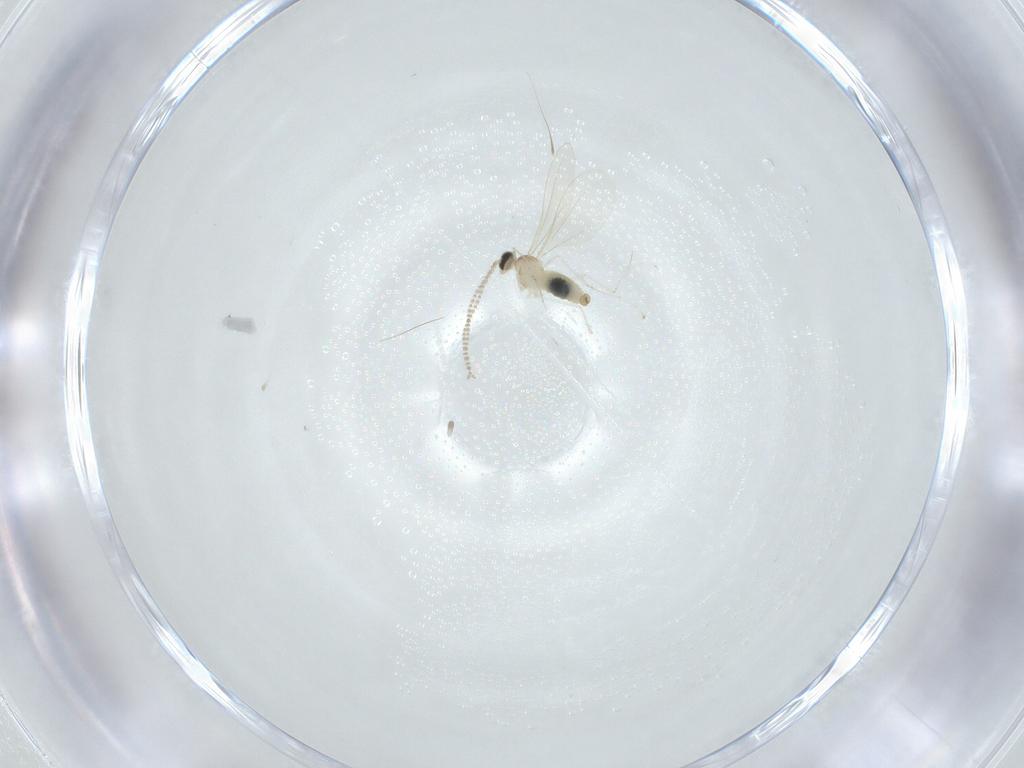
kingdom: Animalia
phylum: Arthropoda
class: Insecta
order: Diptera
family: Cecidomyiidae
